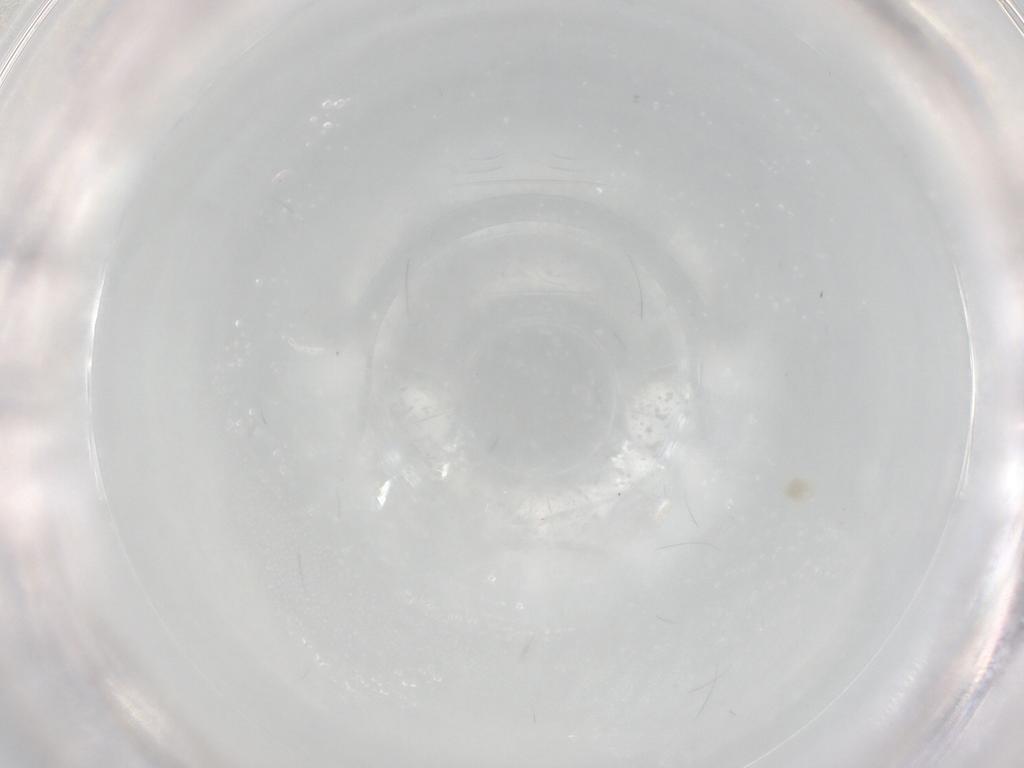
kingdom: Animalia
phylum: Arthropoda
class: Arachnida
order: Trombidiformes
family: Eupodidae
